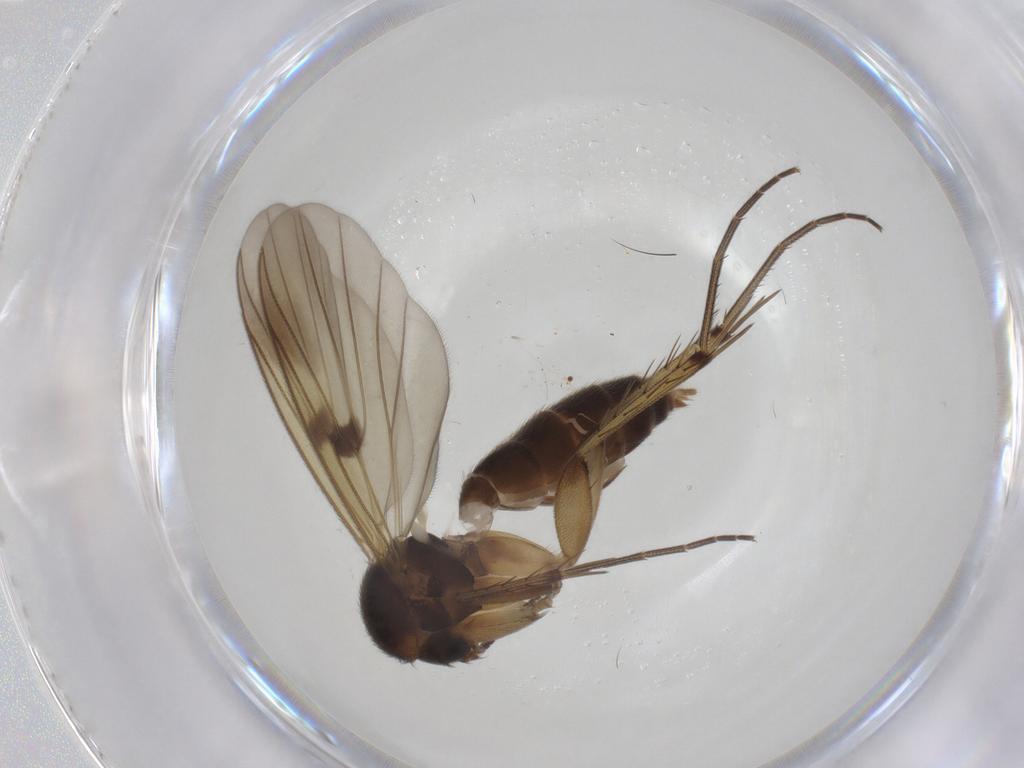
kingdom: Animalia
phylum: Arthropoda
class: Insecta
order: Diptera
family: Mycetophilidae
